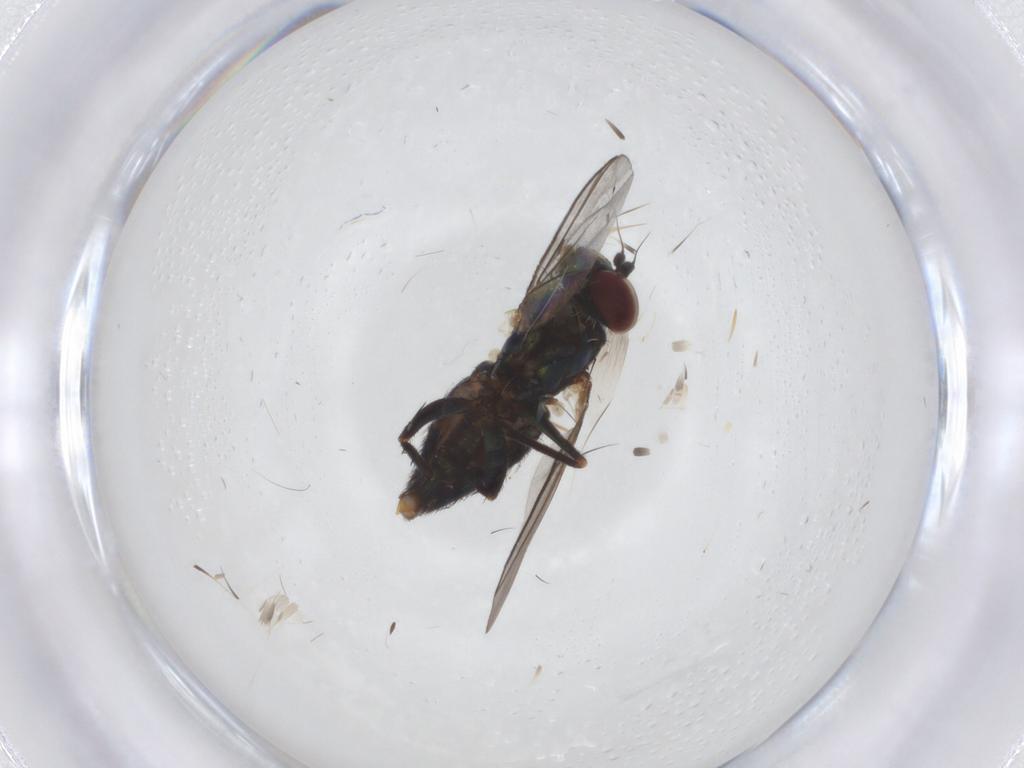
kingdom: Animalia
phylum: Arthropoda
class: Insecta
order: Diptera
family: Dolichopodidae
